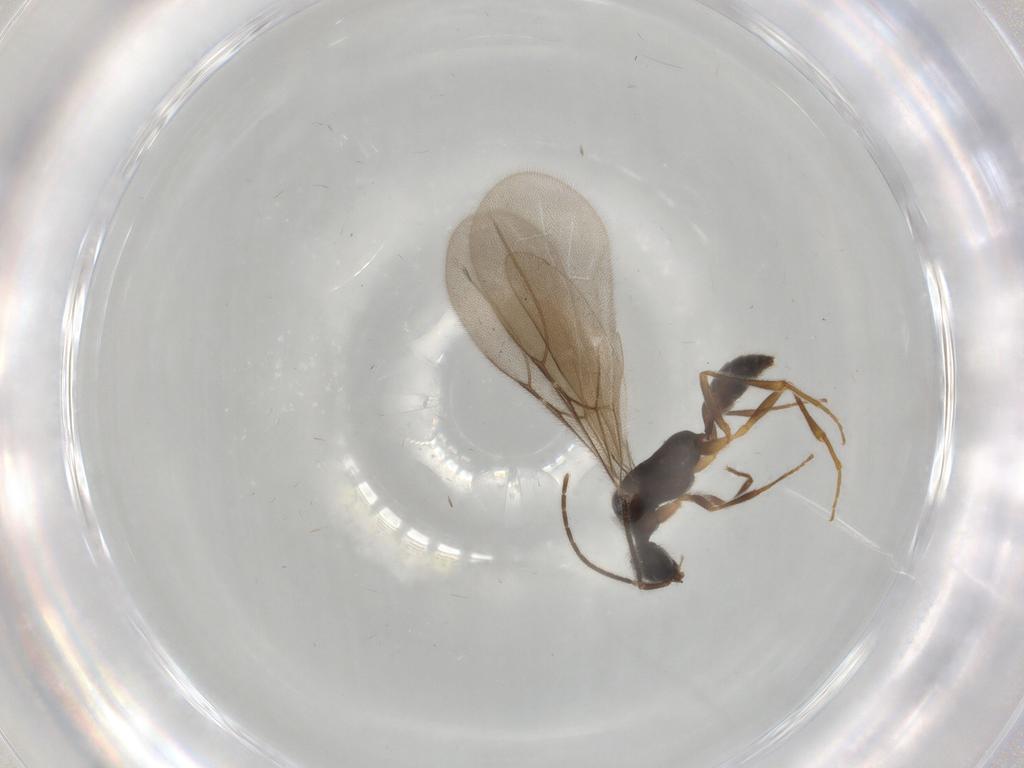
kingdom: Animalia
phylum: Arthropoda
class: Insecta
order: Hymenoptera
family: Bethylidae
